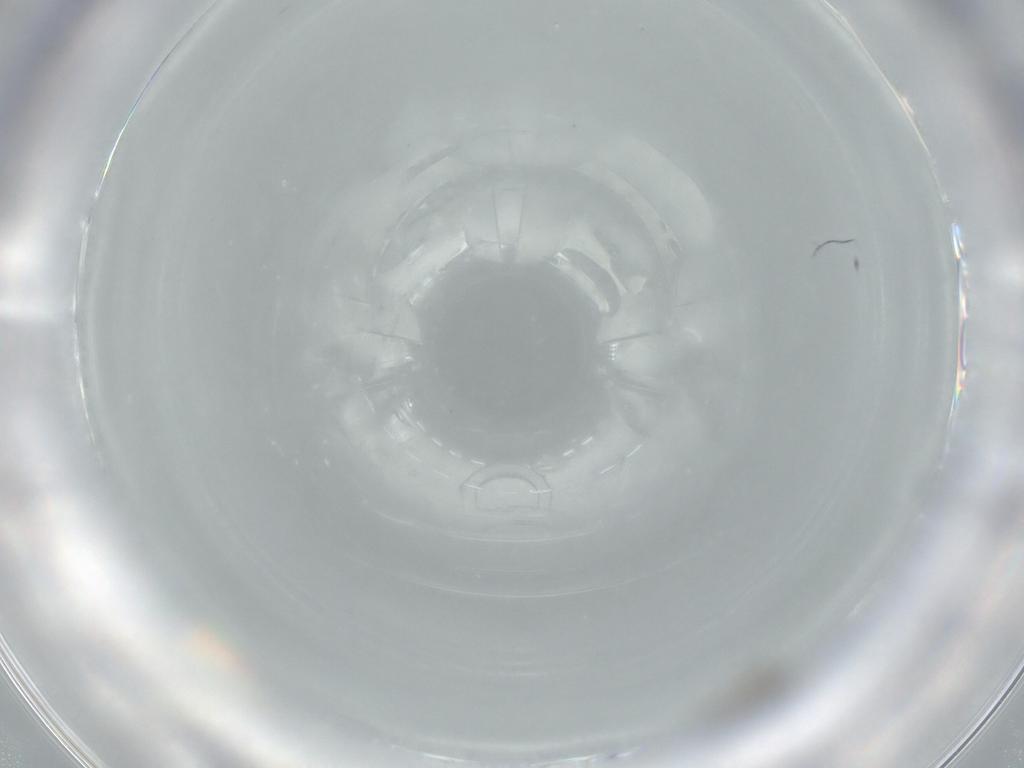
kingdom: Animalia
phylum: Arthropoda
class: Insecta
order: Diptera
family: Cecidomyiidae
